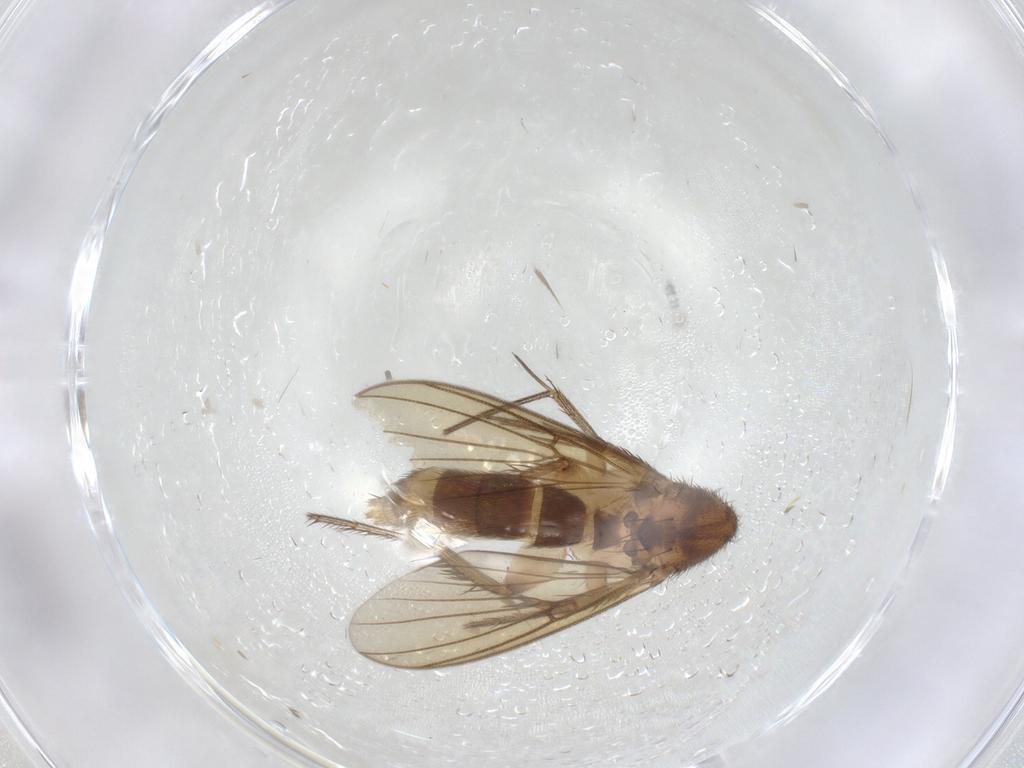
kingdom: Animalia
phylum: Arthropoda
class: Insecta
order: Diptera
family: Mycetophilidae
